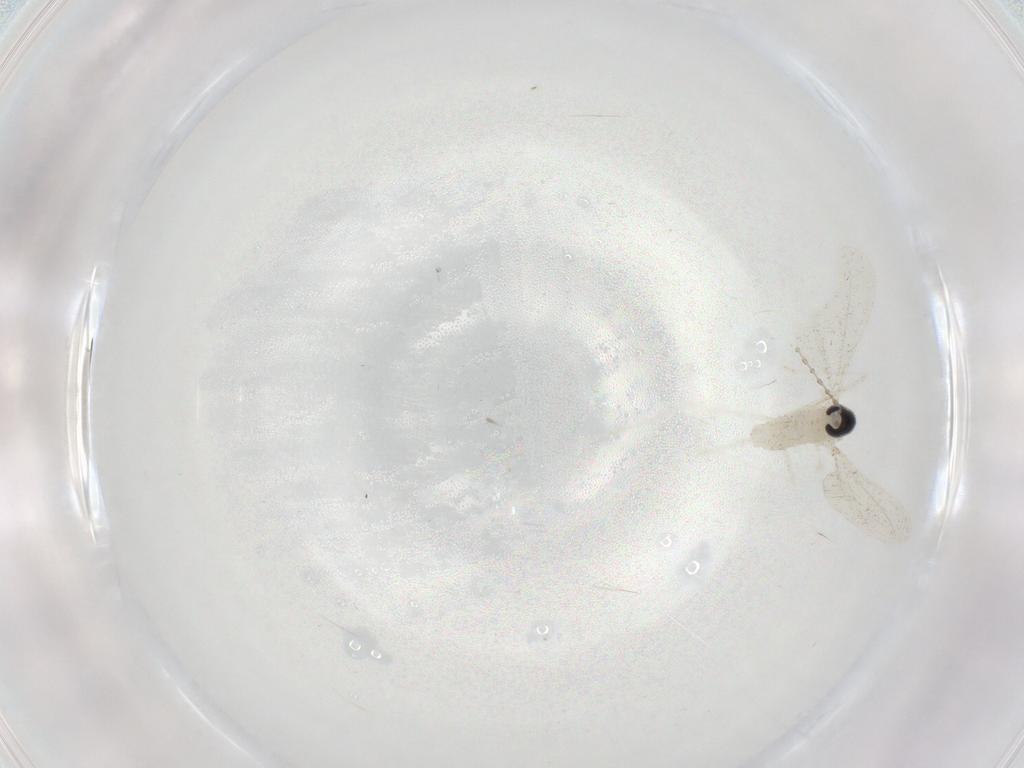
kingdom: Animalia
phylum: Arthropoda
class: Insecta
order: Diptera
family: Cecidomyiidae
